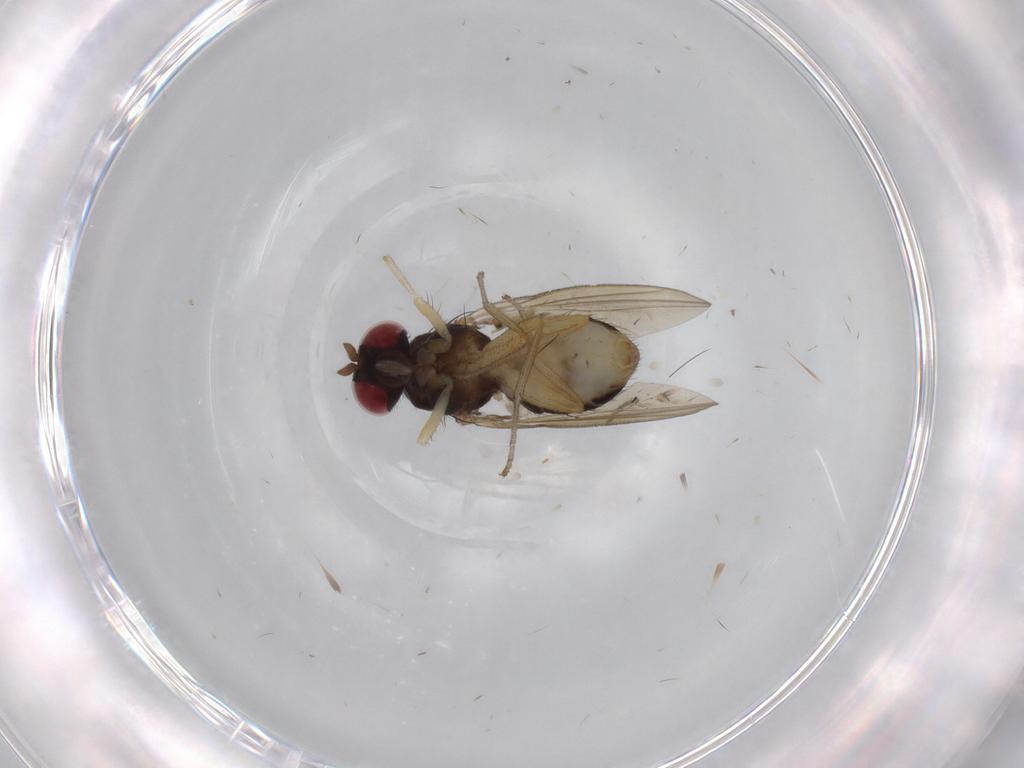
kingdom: Animalia
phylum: Arthropoda
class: Insecta
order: Diptera
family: Lauxaniidae
